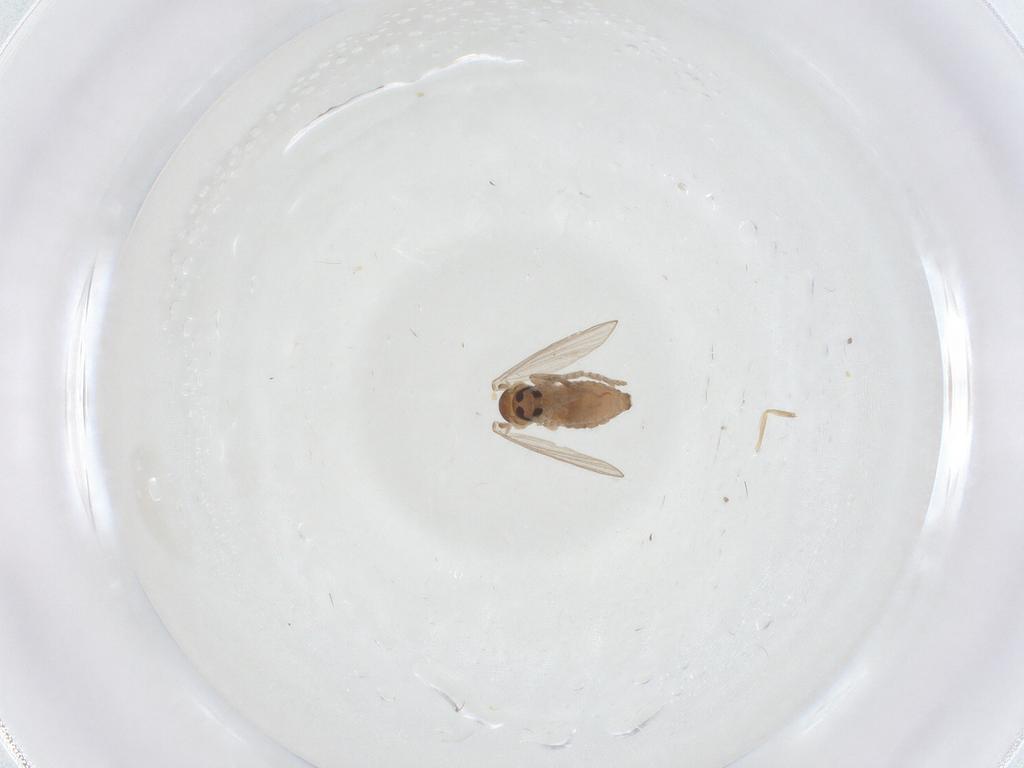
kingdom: Animalia
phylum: Arthropoda
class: Insecta
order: Diptera
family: Psychodidae
